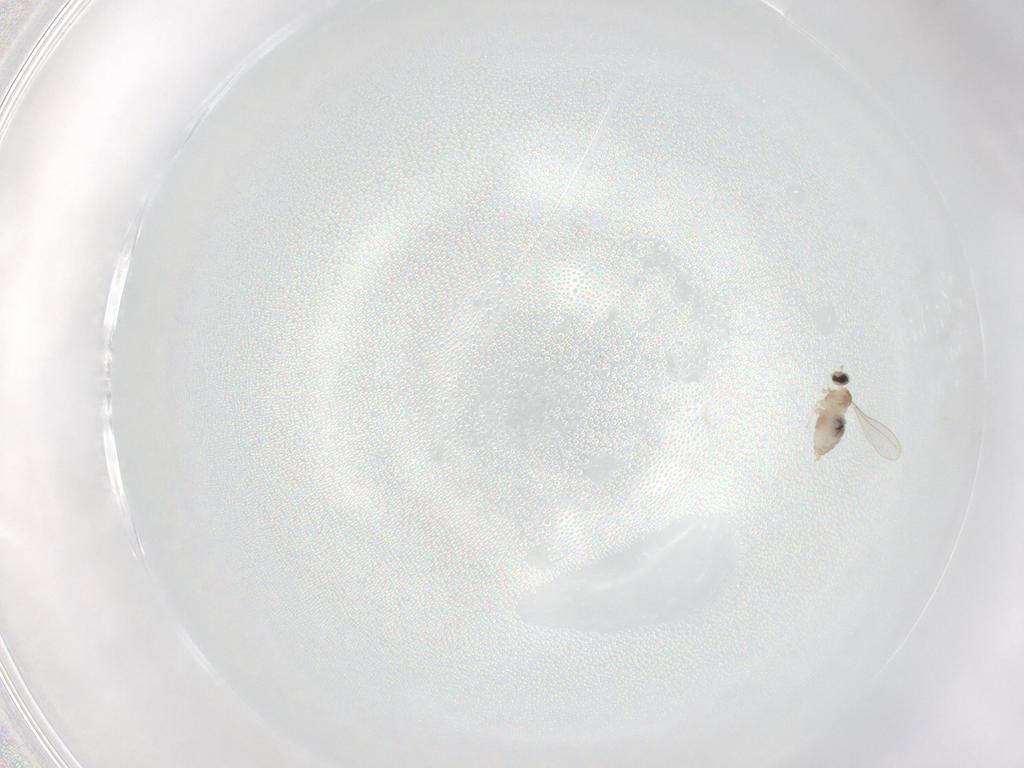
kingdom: Animalia
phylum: Arthropoda
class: Insecta
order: Diptera
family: Cecidomyiidae
